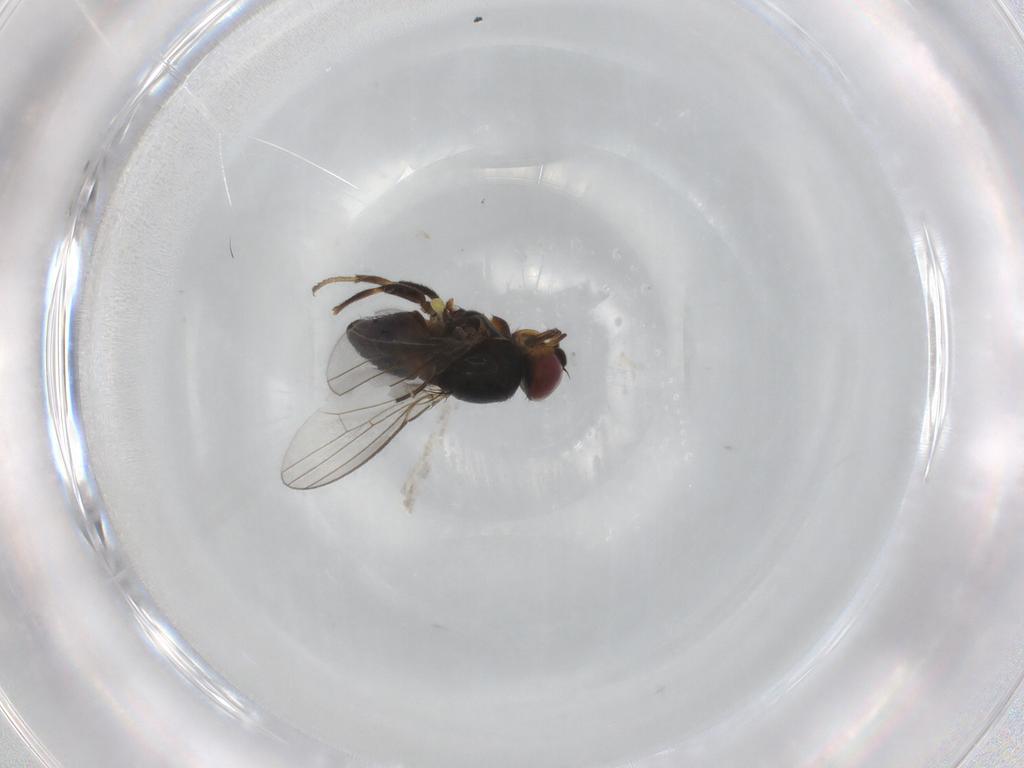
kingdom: Animalia
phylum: Arthropoda
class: Insecta
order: Diptera
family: Milichiidae
